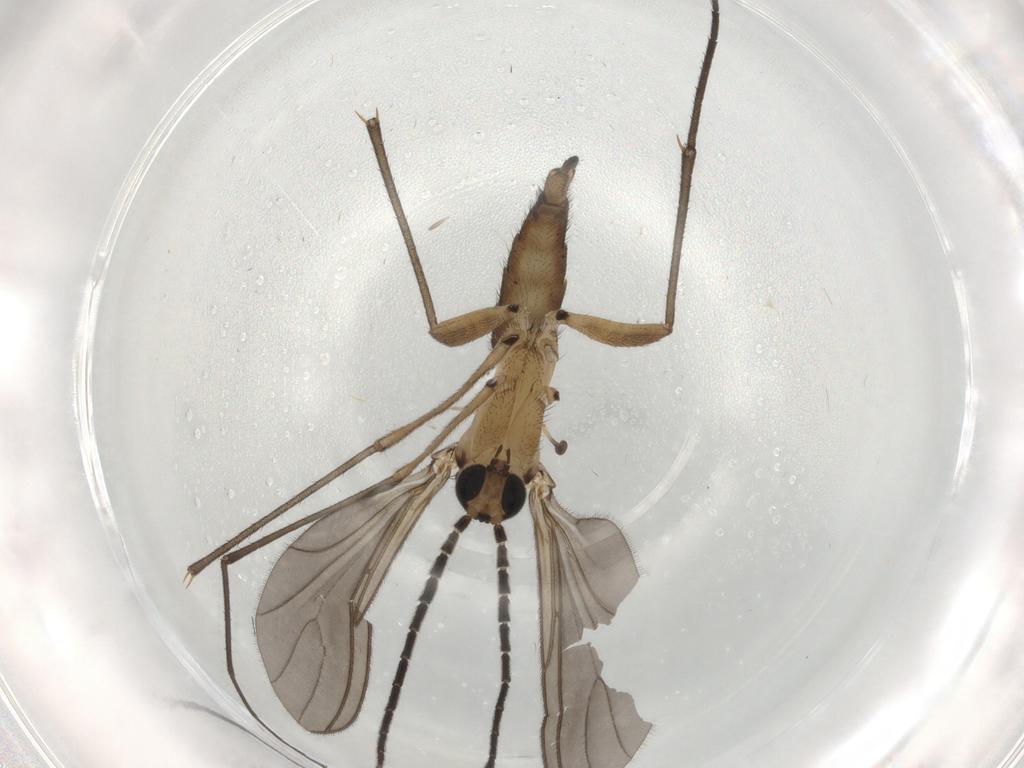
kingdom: Animalia
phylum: Arthropoda
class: Insecta
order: Diptera
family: Sciaridae
